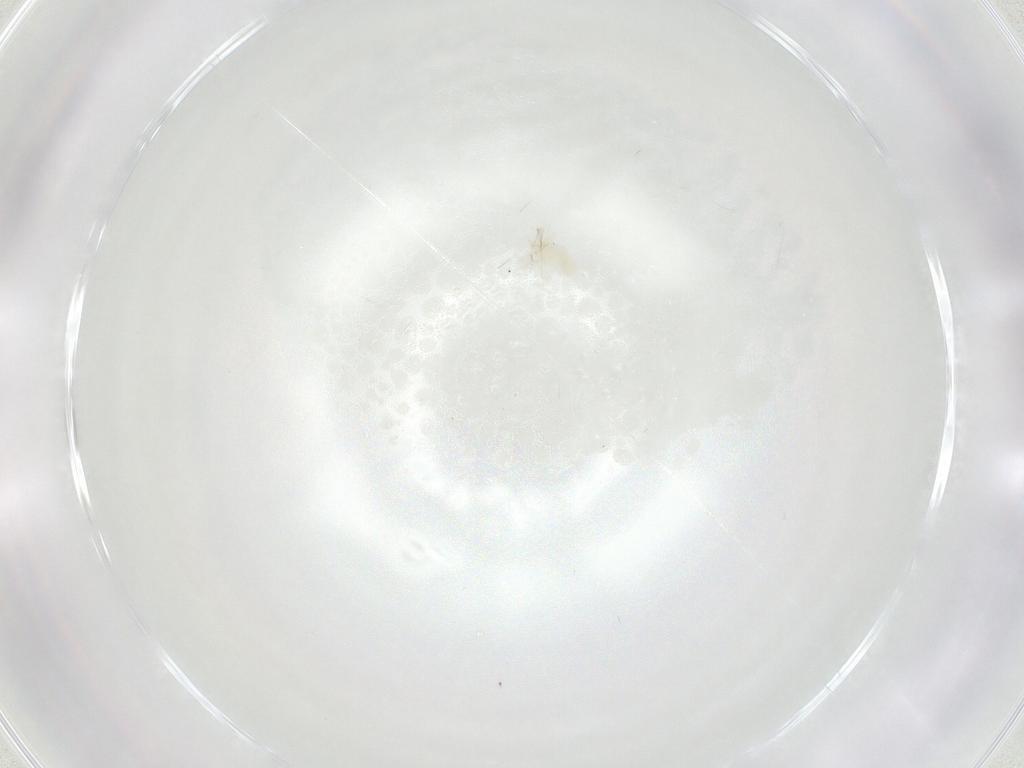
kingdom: Animalia
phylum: Arthropoda
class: Arachnida
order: Trombidiformes
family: Anystidae
